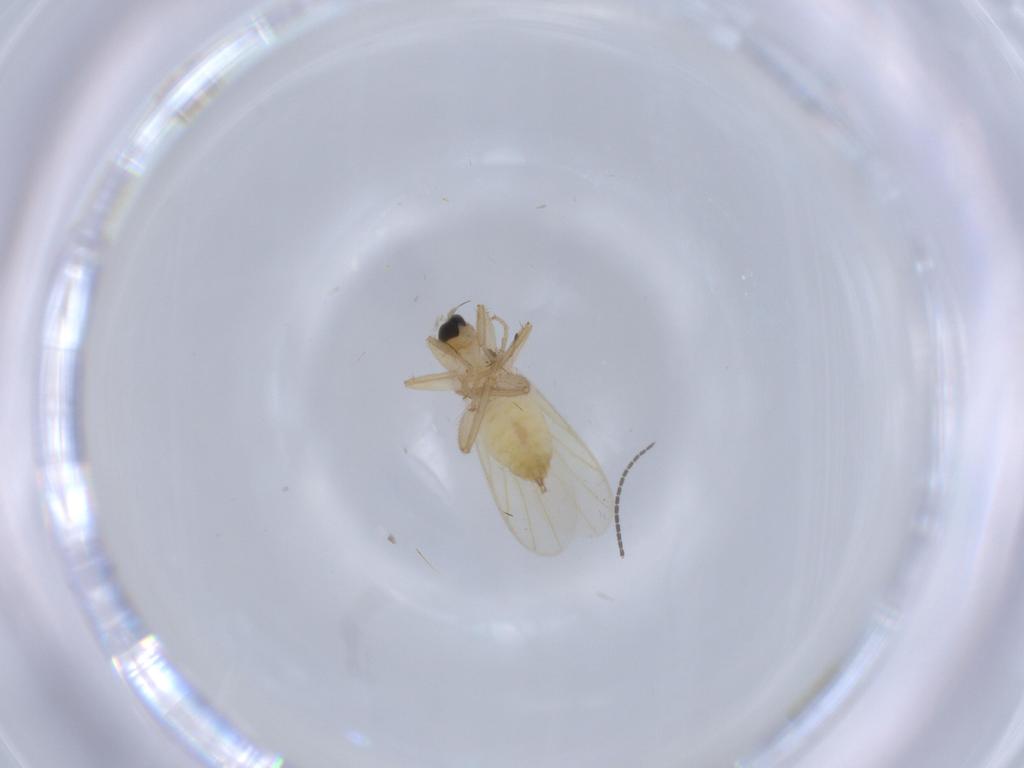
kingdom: Animalia
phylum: Arthropoda
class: Insecta
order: Diptera
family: Hybotidae
